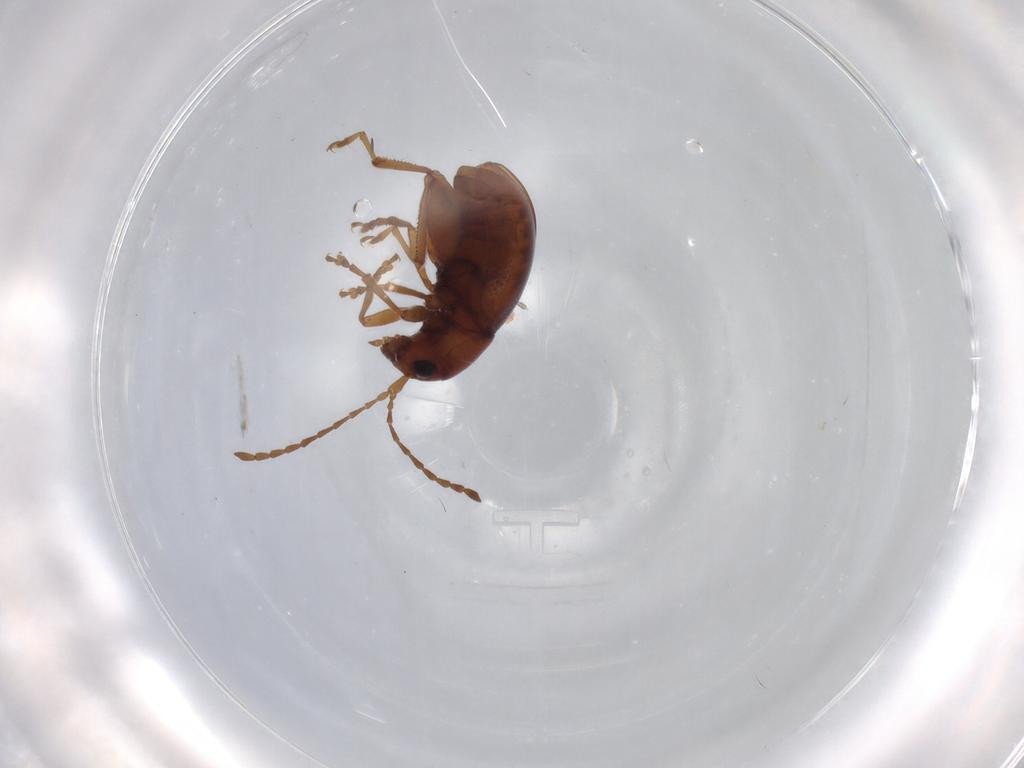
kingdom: Animalia
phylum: Arthropoda
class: Insecta
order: Coleoptera
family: Chrysomelidae
